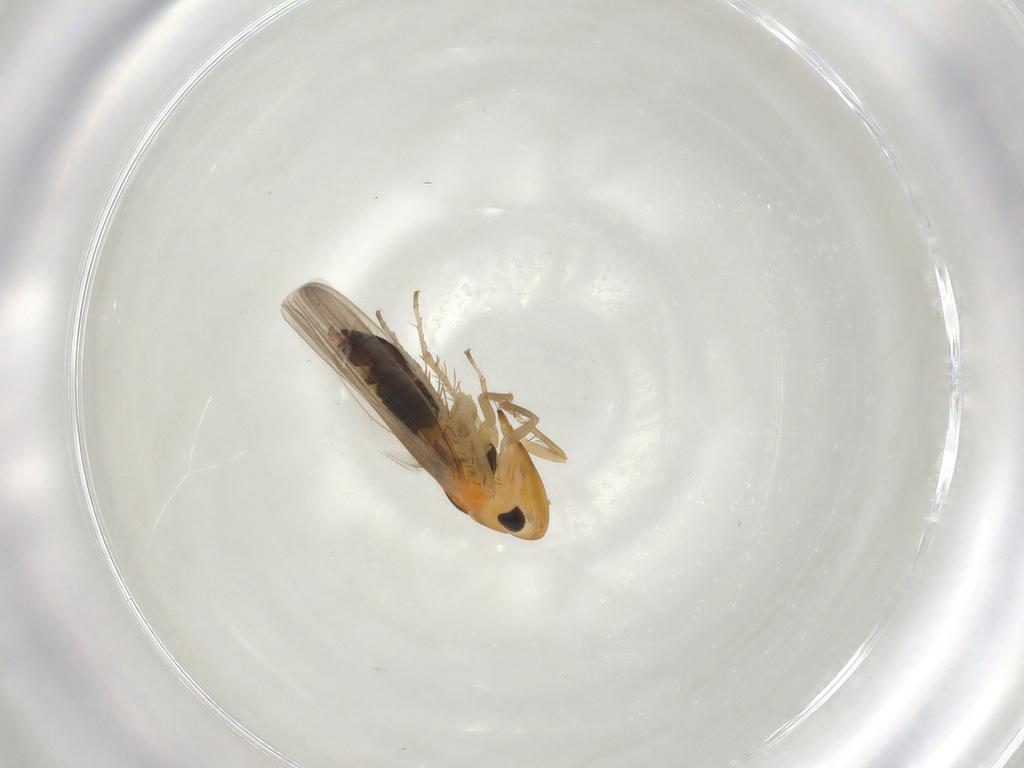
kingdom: Animalia
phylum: Arthropoda
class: Insecta
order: Hemiptera
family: Cicadellidae
